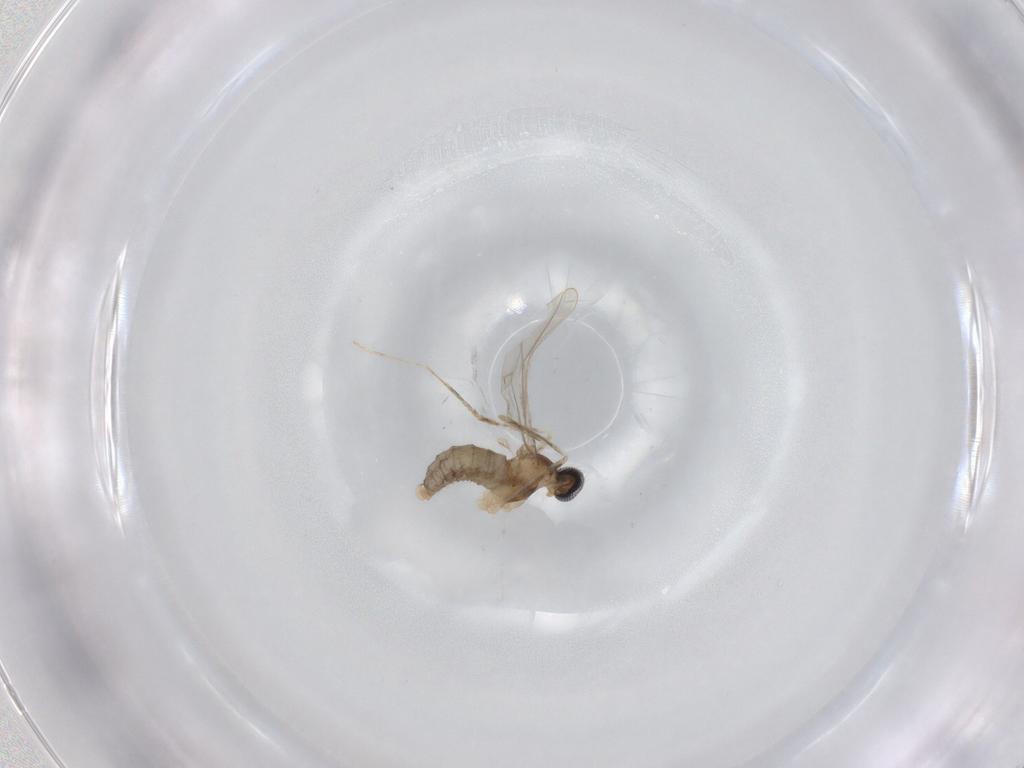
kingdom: Animalia
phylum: Arthropoda
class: Insecta
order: Diptera
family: Cecidomyiidae
